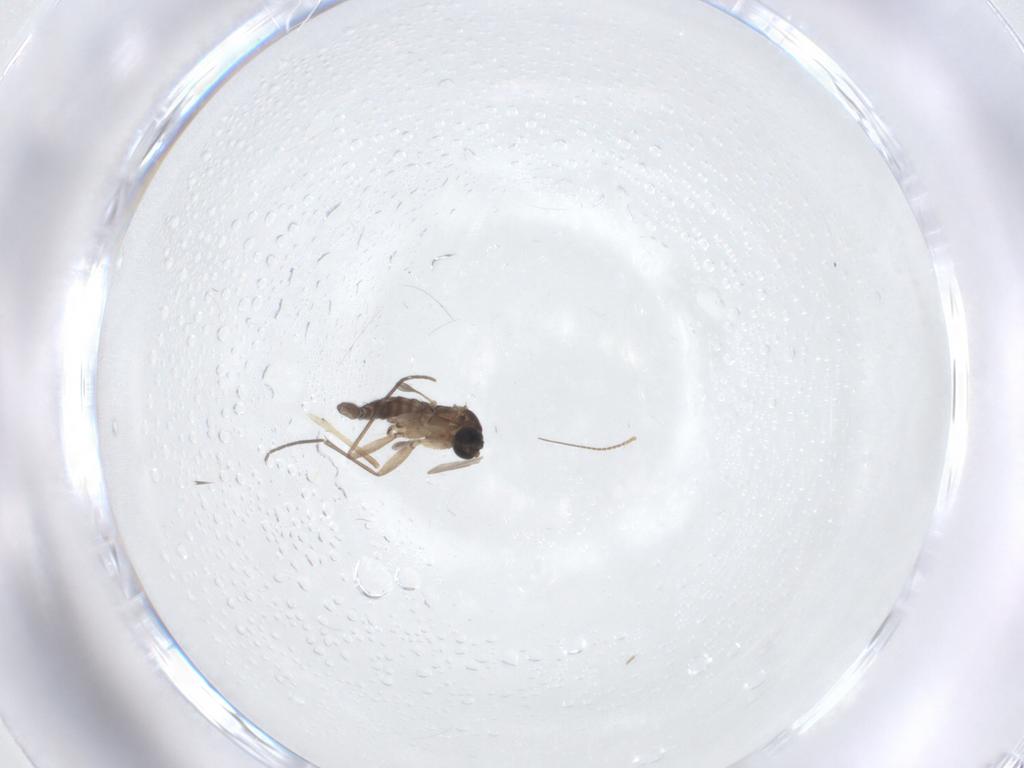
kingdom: Animalia
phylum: Arthropoda
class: Insecta
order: Diptera
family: Sciaridae
